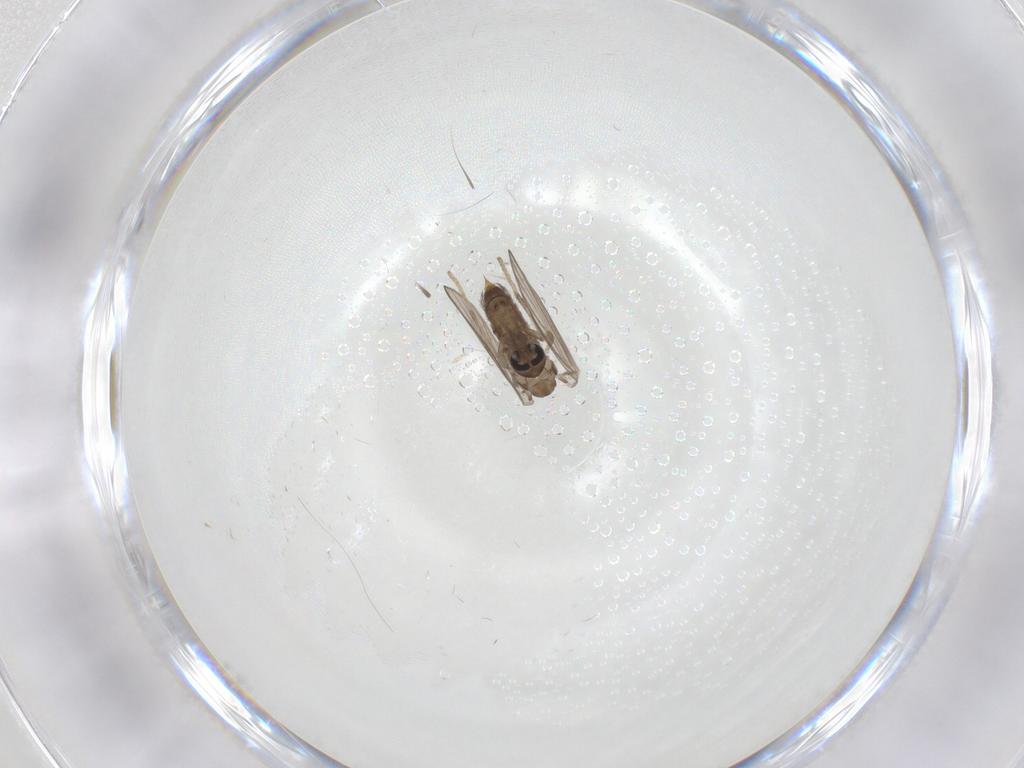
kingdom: Animalia
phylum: Arthropoda
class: Insecta
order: Diptera
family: Psychodidae
